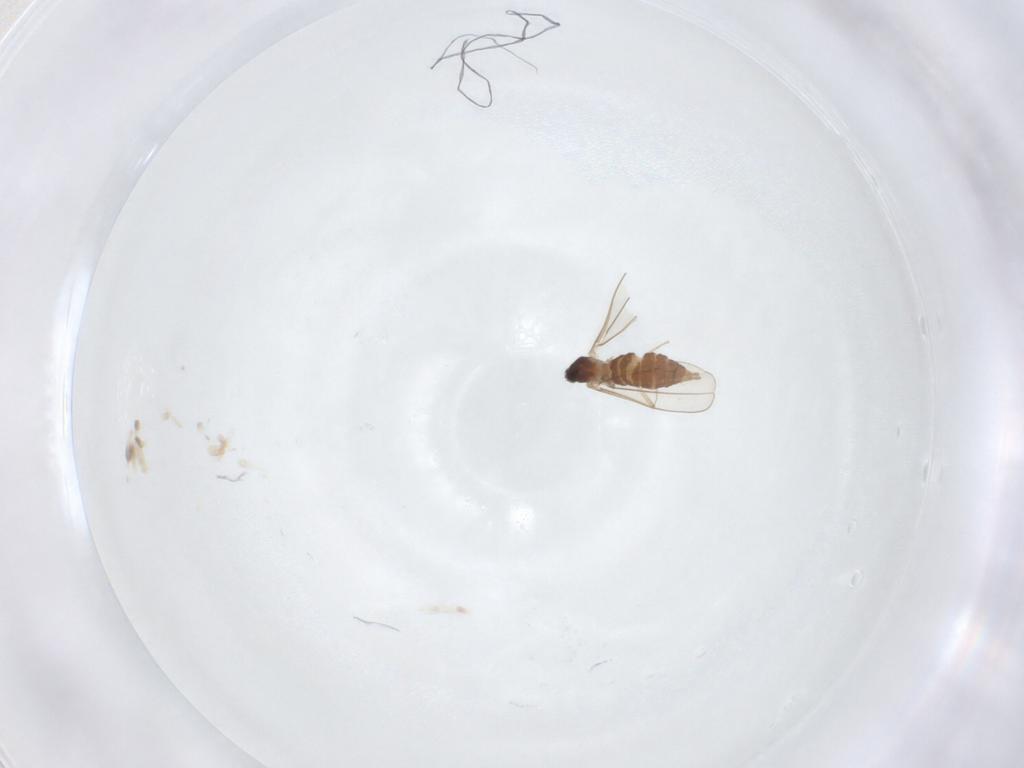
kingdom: Animalia
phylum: Arthropoda
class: Insecta
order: Diptera
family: Cecidomyiidae
